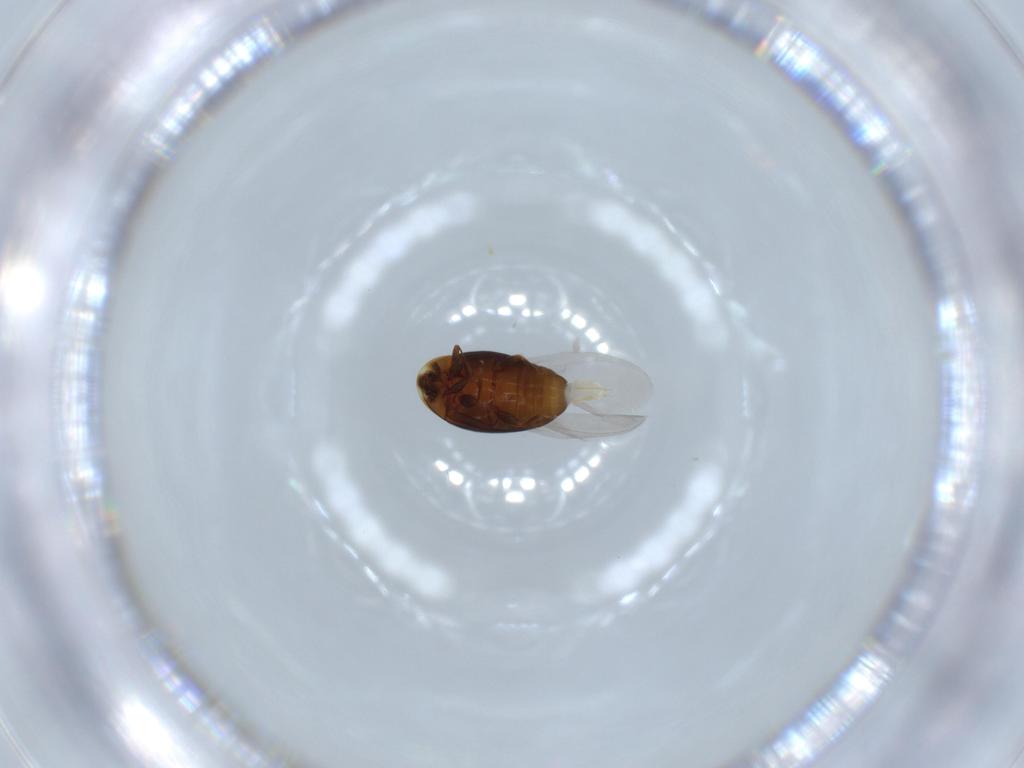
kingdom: Animalia
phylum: Arthropoda
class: Insecta
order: Coleoptera
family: Corylophidae
